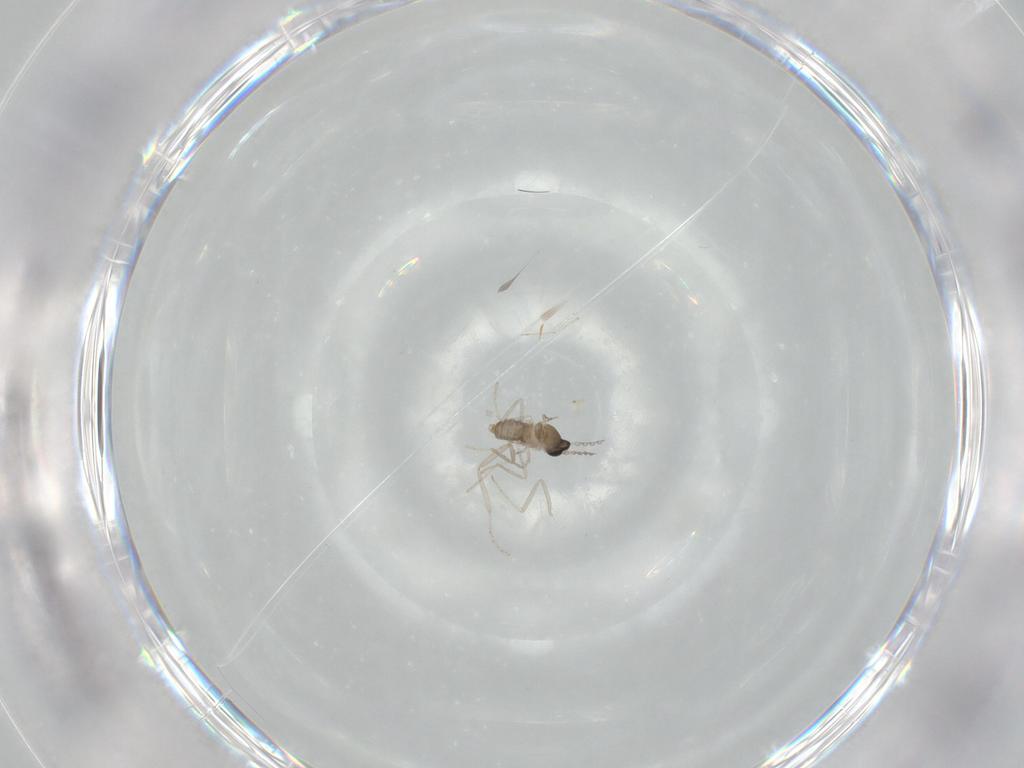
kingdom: Animalia
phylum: Arthropoda
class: Insecta
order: Diptera
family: Cecidomyiidae
